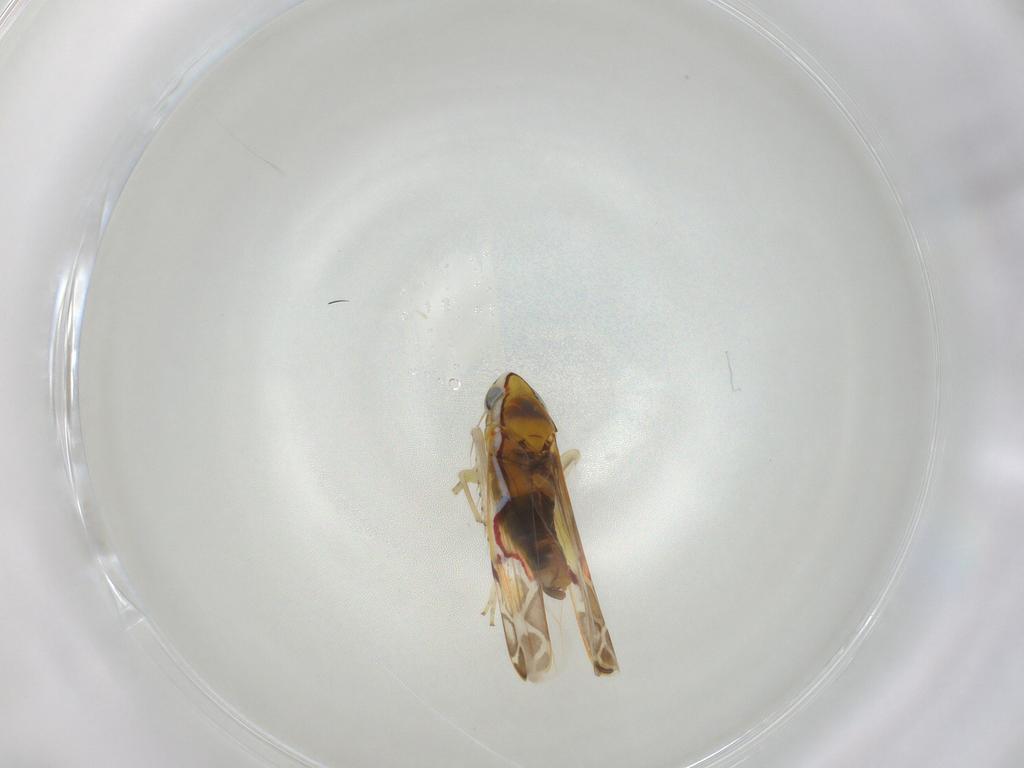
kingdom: Animalia
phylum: Arthropoda
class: Insecta
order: Hemiptera
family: Cicadellidae
